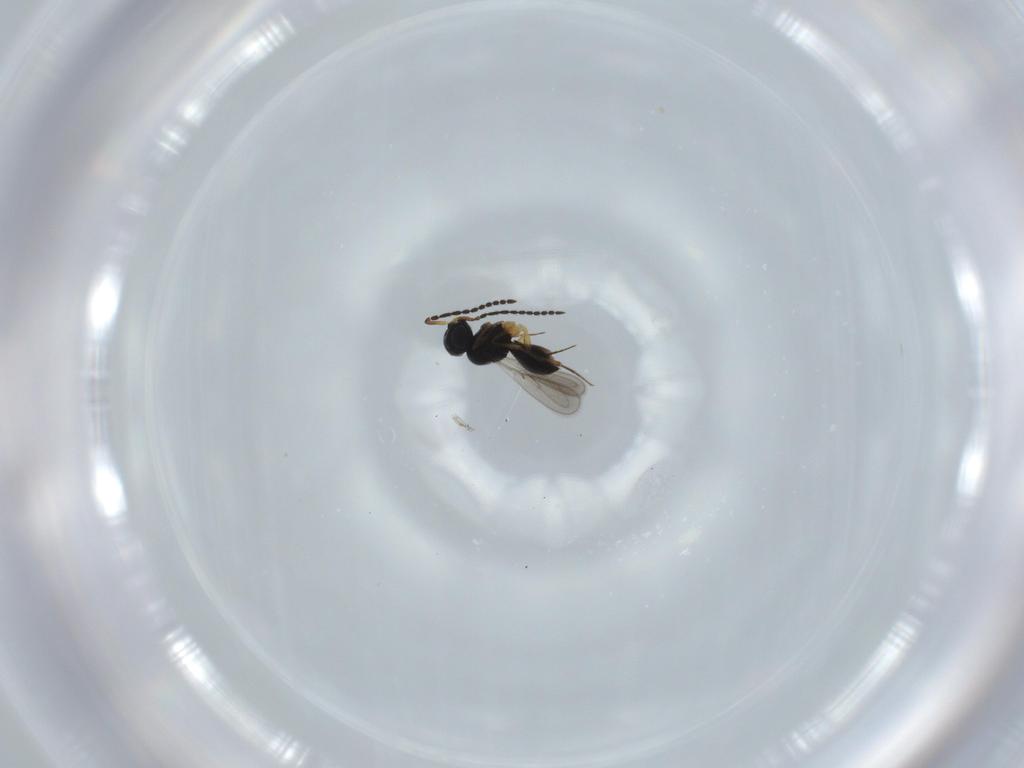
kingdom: Animalia
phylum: Arthropoda
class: Insecta
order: Hymenoptera
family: Scelionidae
